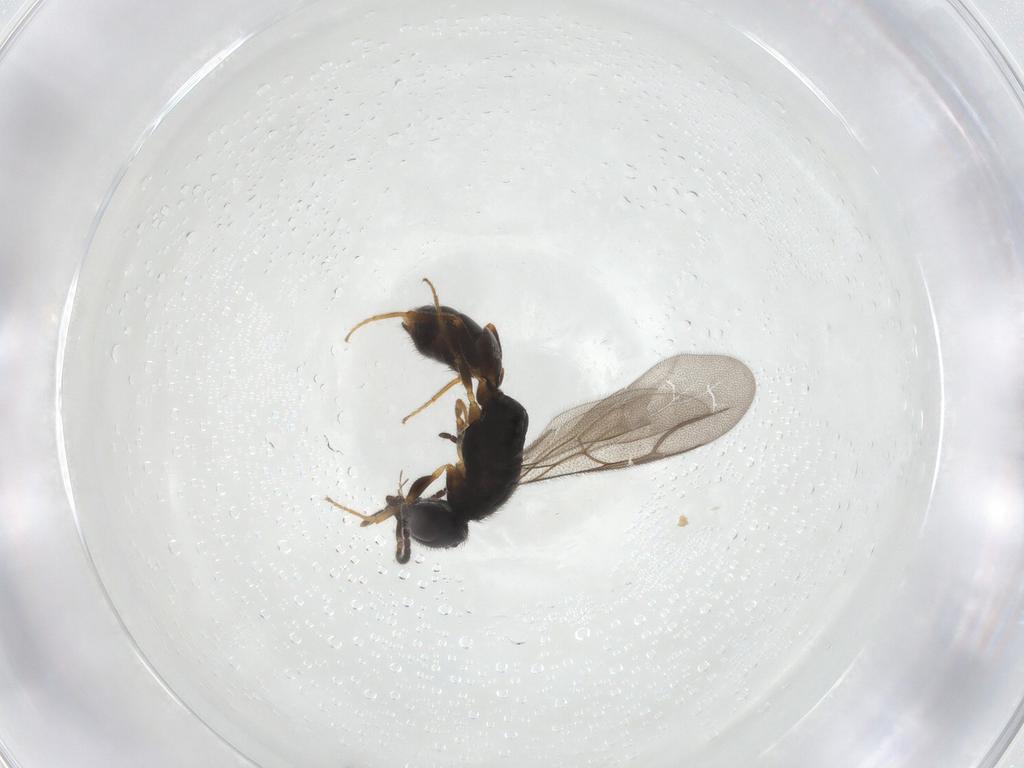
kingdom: Animalia
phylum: Arthropoda
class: Insecta
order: Hymenoptera
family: Bethylidae
